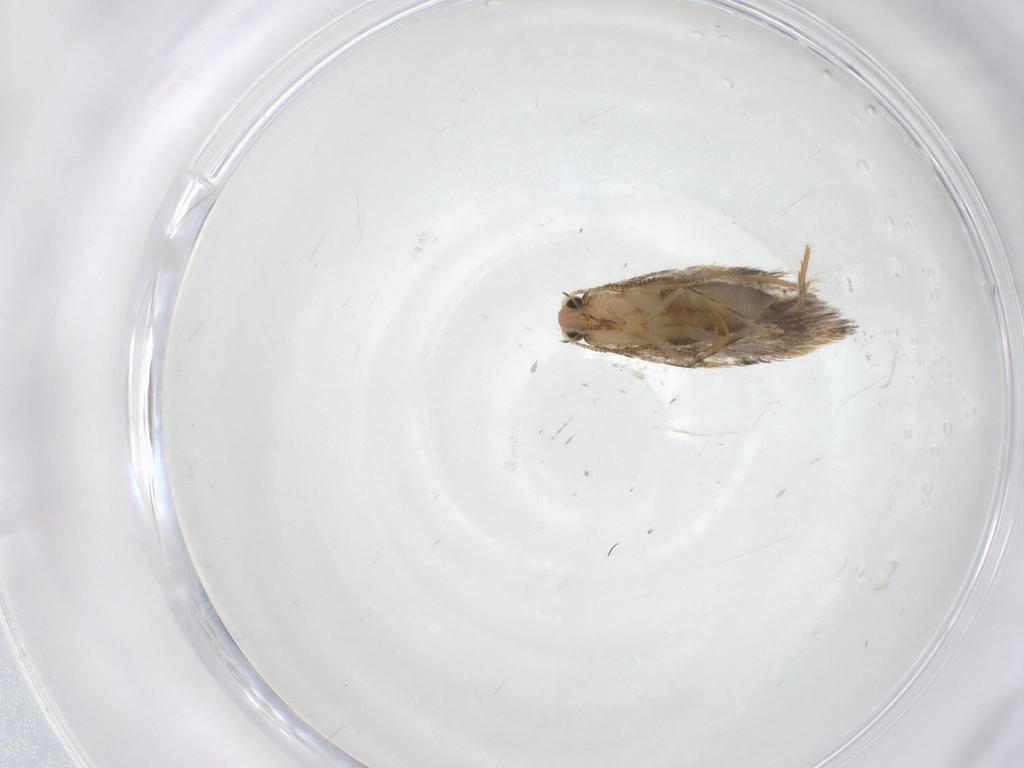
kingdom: Animalia
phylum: Arthropoda
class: Insecta
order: Lepidoptera
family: Tineidae
